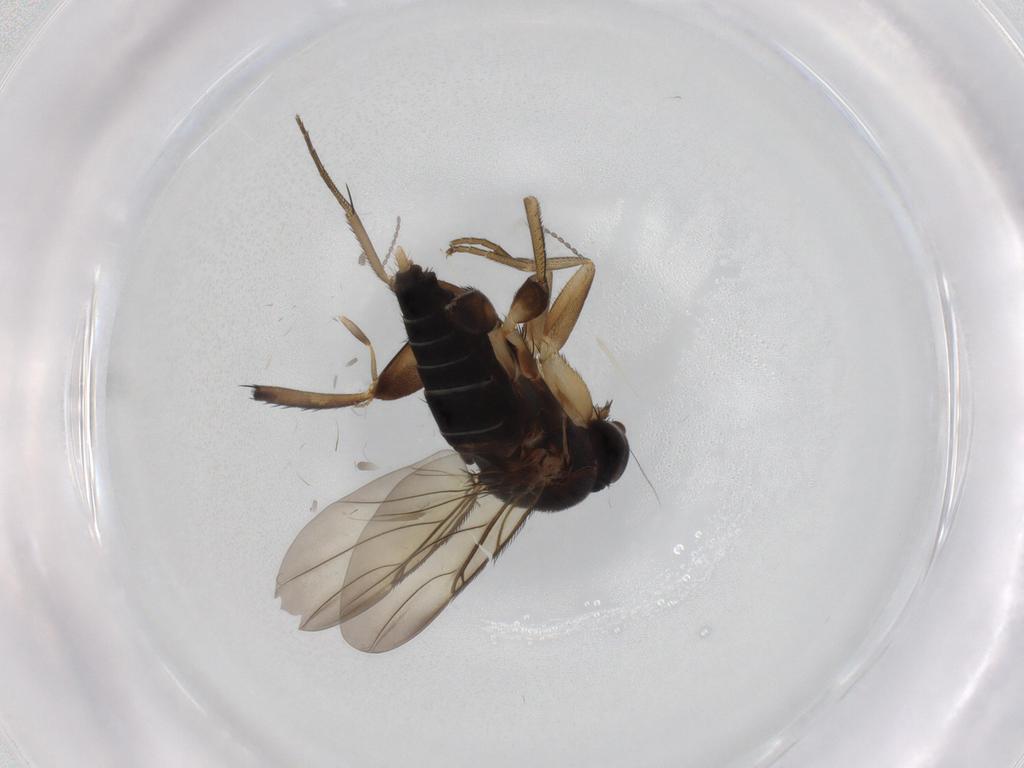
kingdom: Animalia
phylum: Arthropoda
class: Insecta
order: Diptera
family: Phoridae
